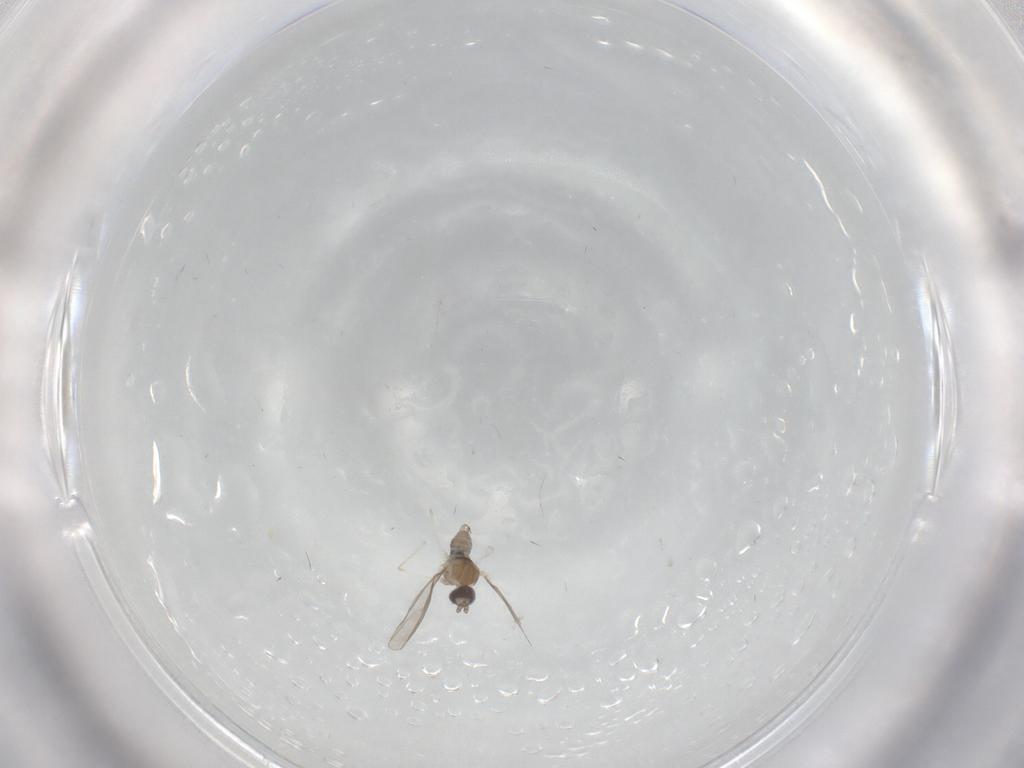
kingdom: Animalia
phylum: Arthropoda
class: Insecta
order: Diptera
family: Cecidomyiidae
